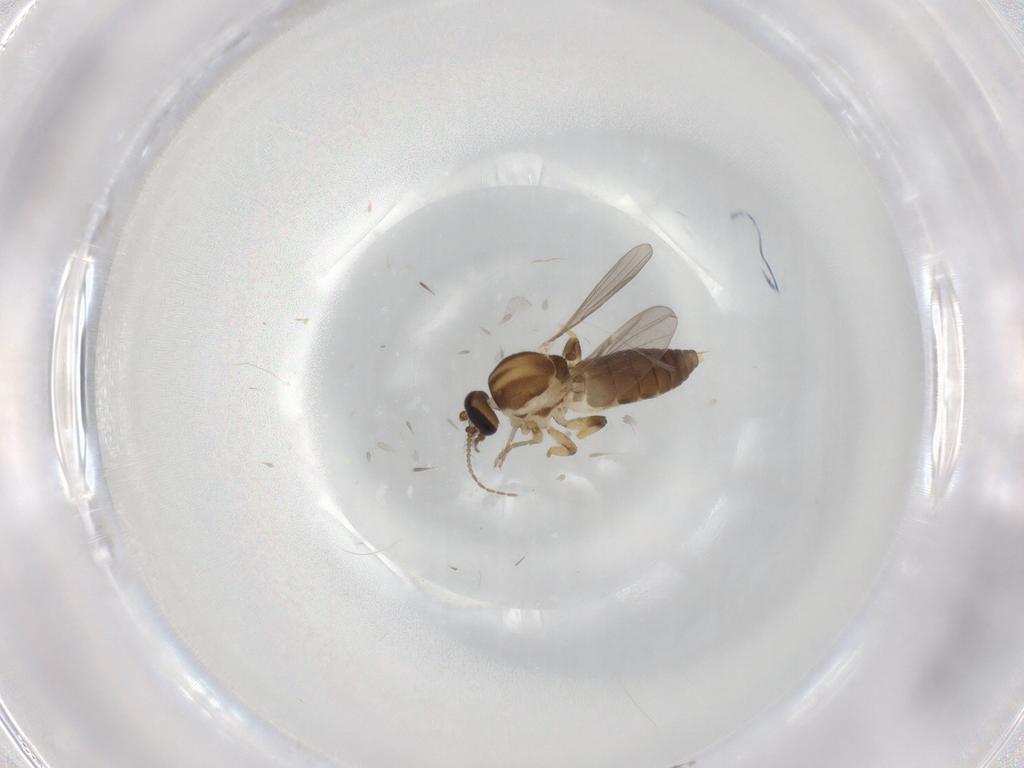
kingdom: Animalia
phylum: Arthropoda
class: Insecta
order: Diptera
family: Ceratopogonidae
